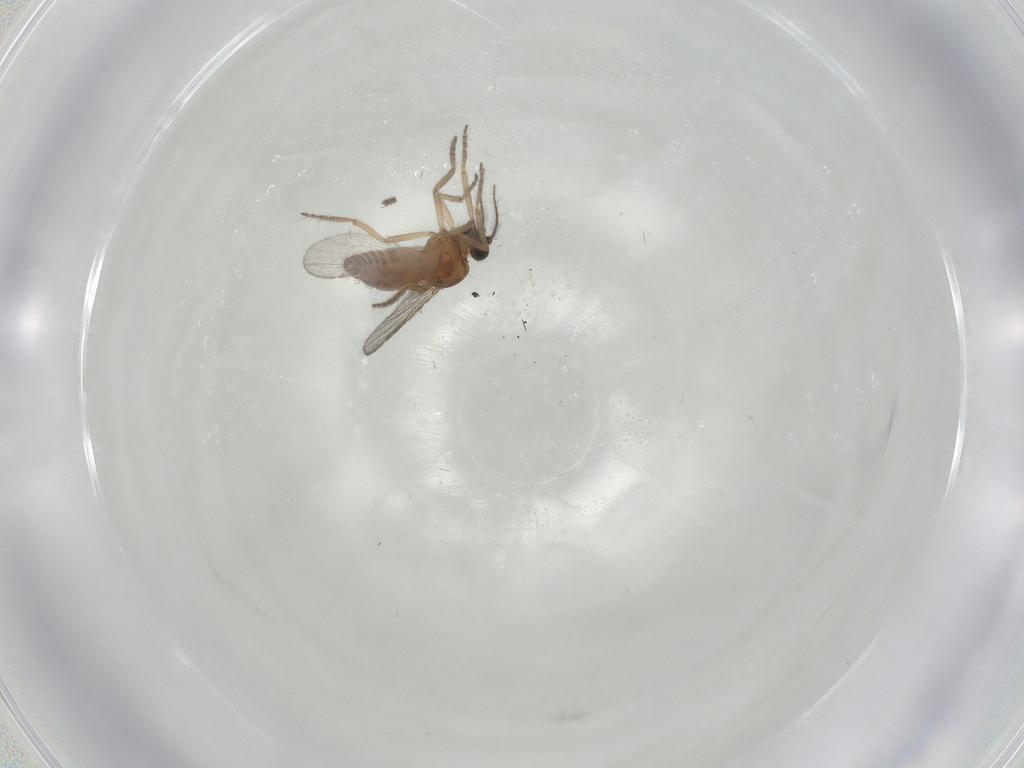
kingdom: Animalia
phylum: Arthropoda
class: Insecta
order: Diptera
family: Ceratopogonidae
